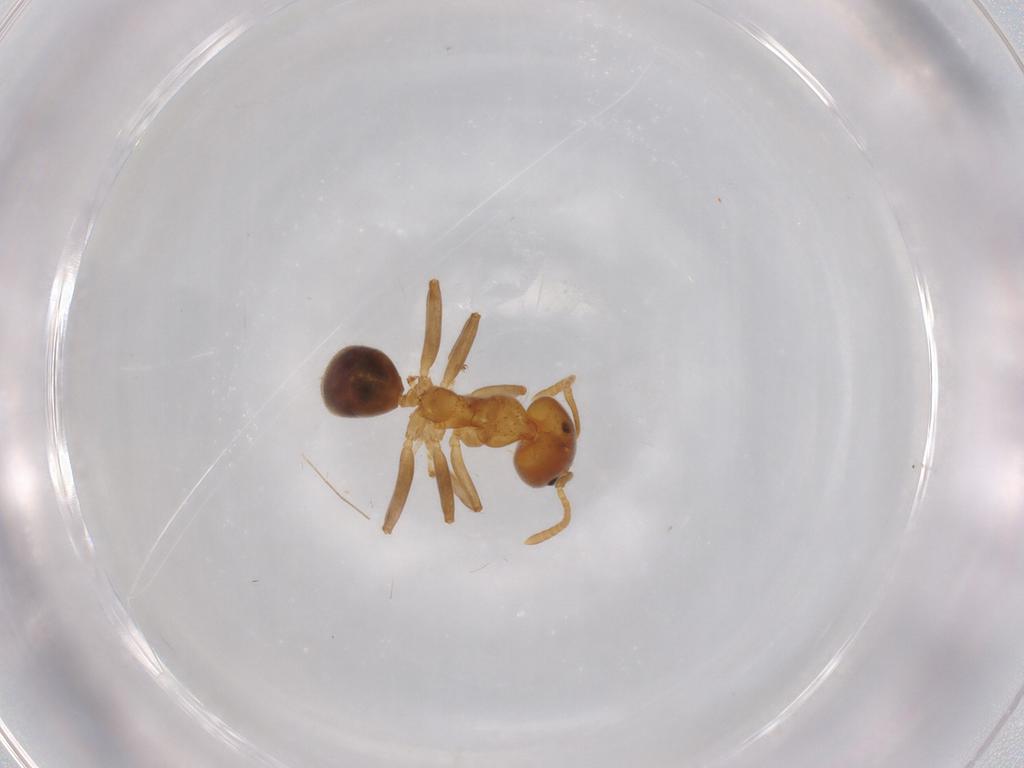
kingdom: Animalia
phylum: Arthropoda
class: Insecta
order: Hymenoptera
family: Formicidae
